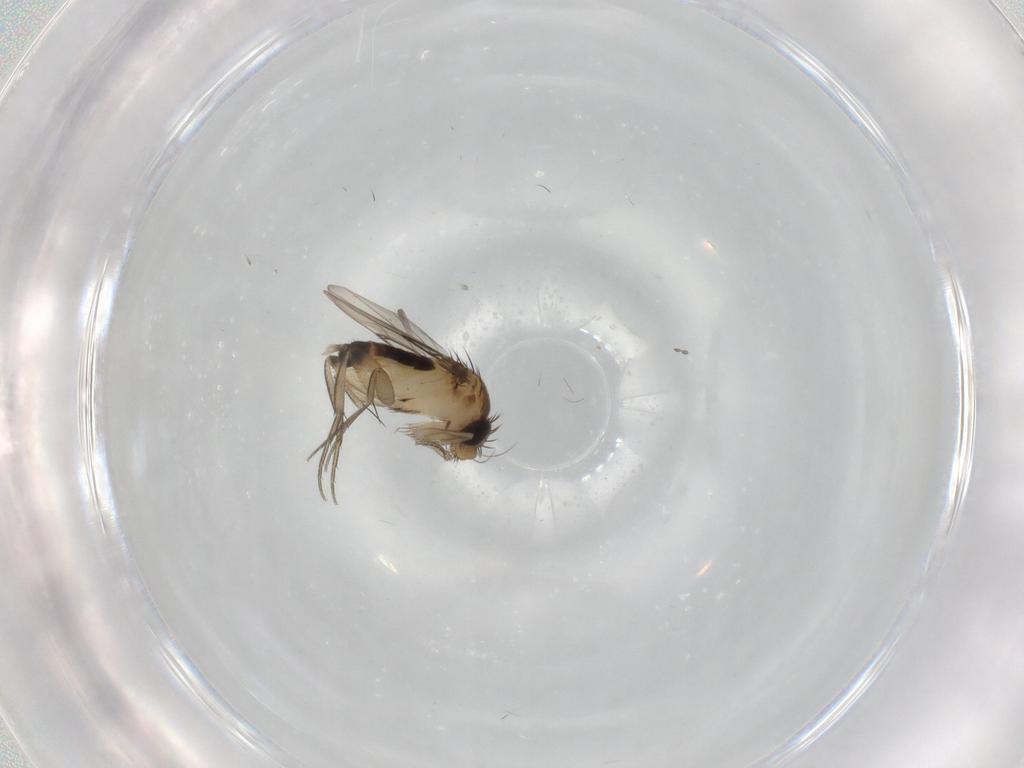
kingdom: Animalia
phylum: Arthropoda
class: Insecta
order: Diptera
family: Phoridae
